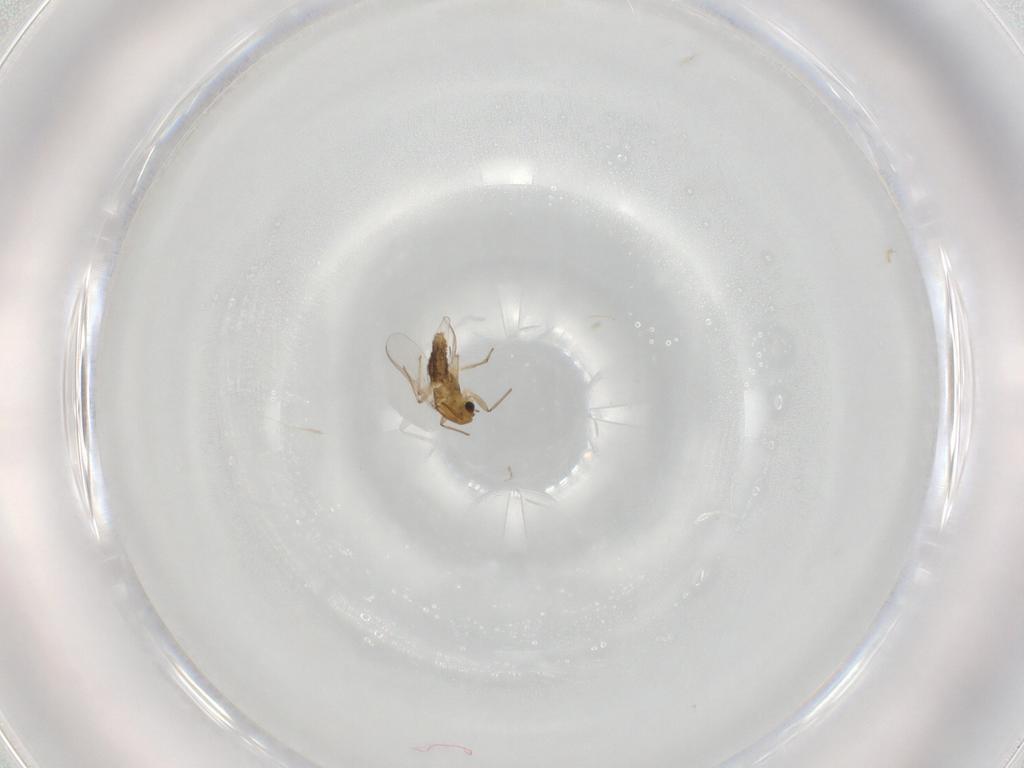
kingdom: Animalia
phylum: Arthropoda
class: Insecta
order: Diptera
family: Chironomidae
